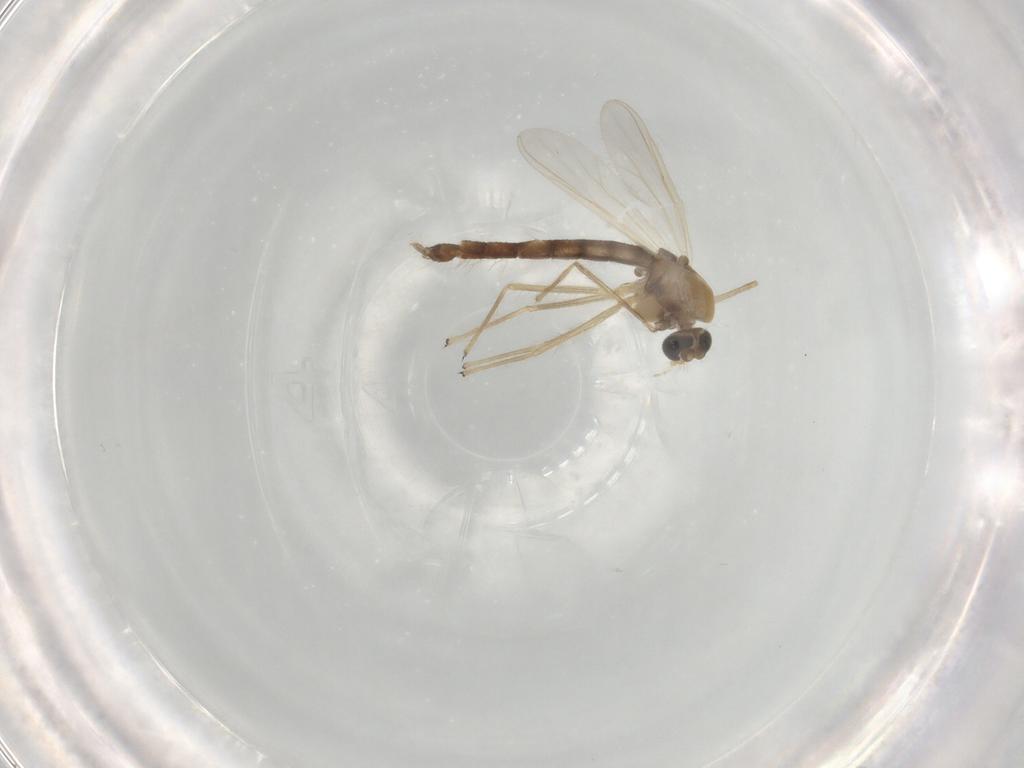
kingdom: Animalia
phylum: Arthropoda
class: Insecta
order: Diptera
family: Chironomidae
